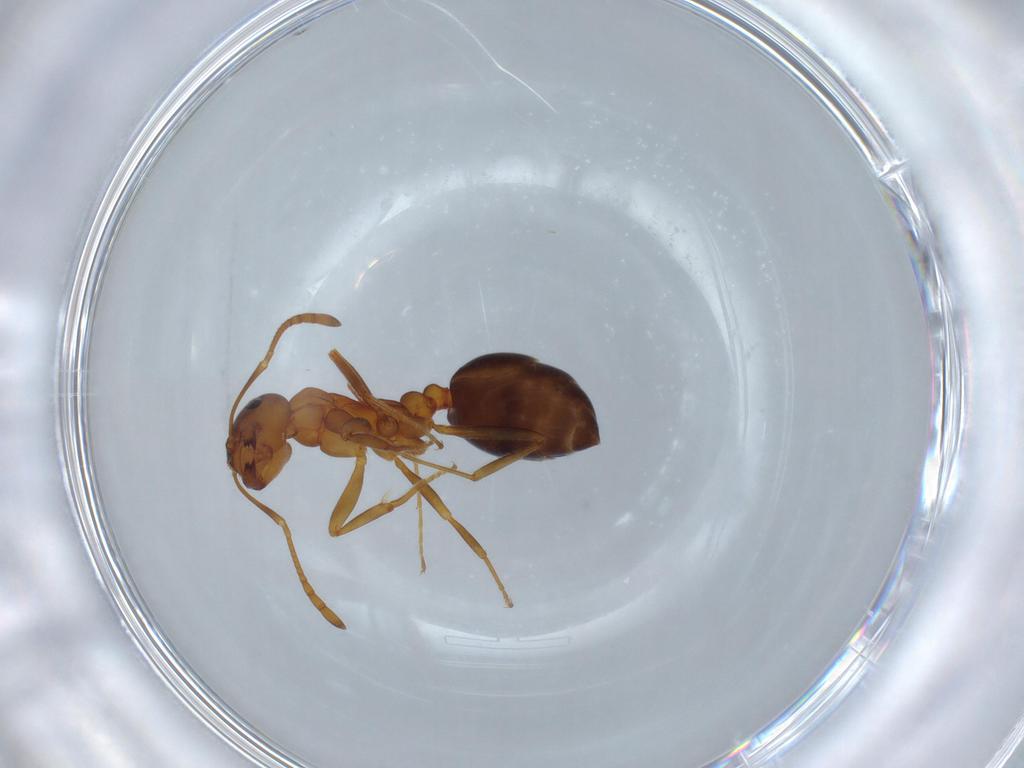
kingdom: Animalia
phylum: Arthropoda
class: Insecta
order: Hymenoptera
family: Formicidae
